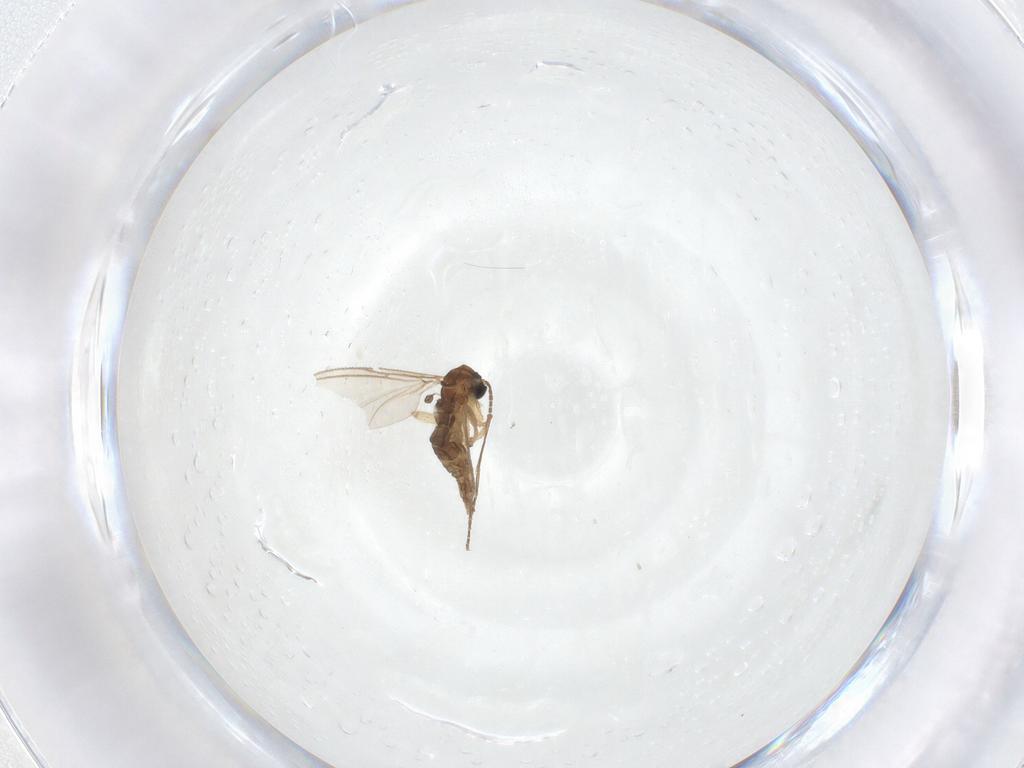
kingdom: Animalia
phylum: Arthropoda
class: Insecta
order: Diptera
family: Sciaridae
